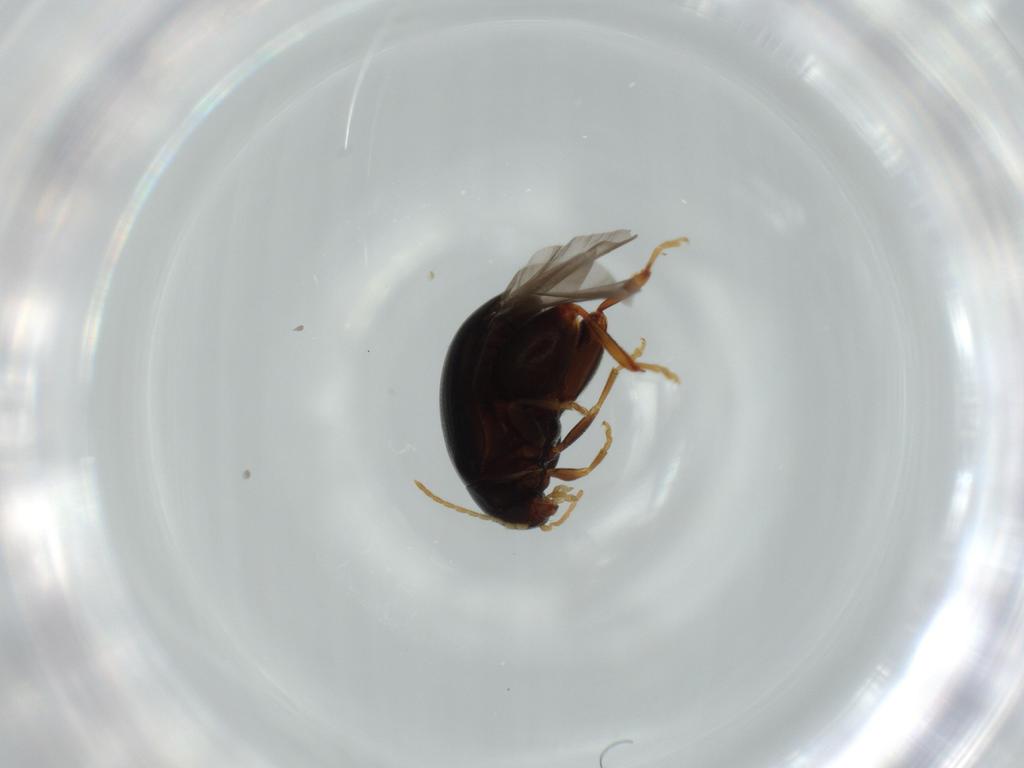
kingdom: Animalia
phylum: Arthropoda
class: Insecta
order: Coleoptera
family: Chrysomelidae
